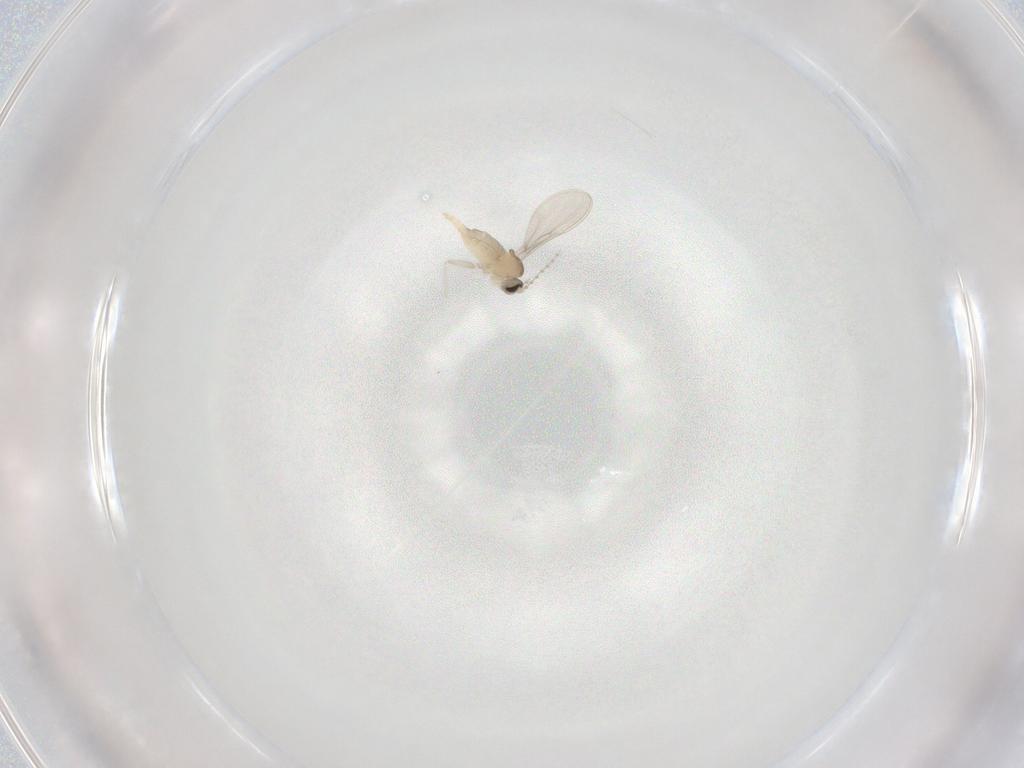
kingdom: Animalia
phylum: Arthropoda
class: Insecta
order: Diptera
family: Cecidomyiidae
